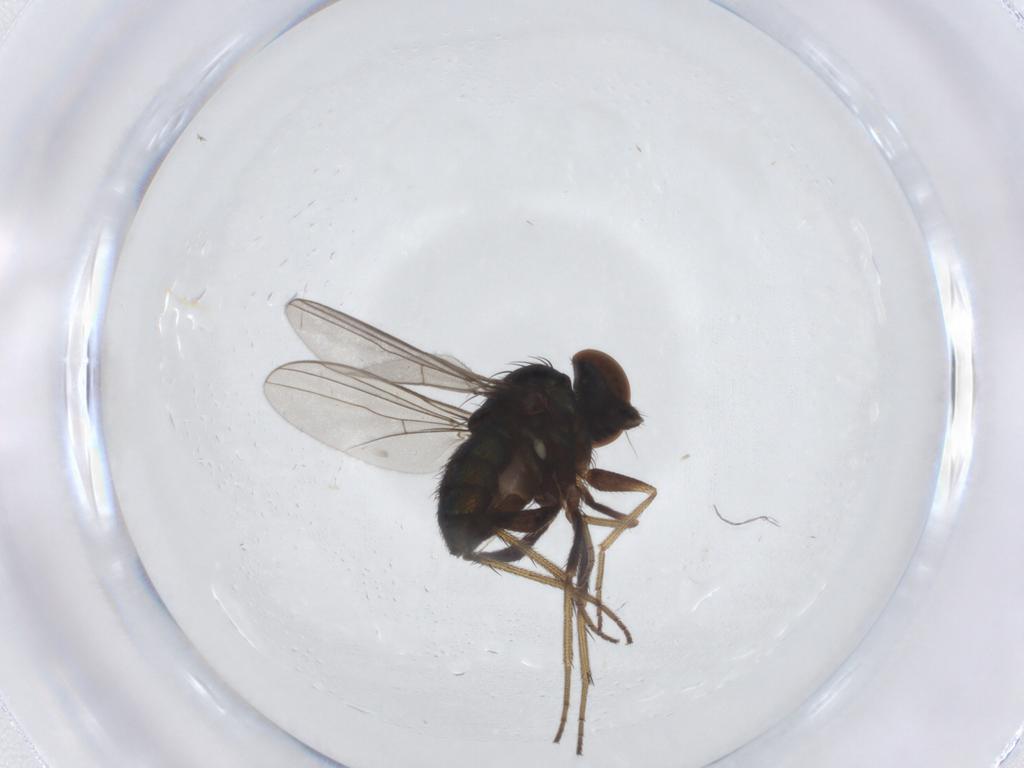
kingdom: Animalia
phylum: Arthropoda
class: Insecta
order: Diptera
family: Dolichopodidae
